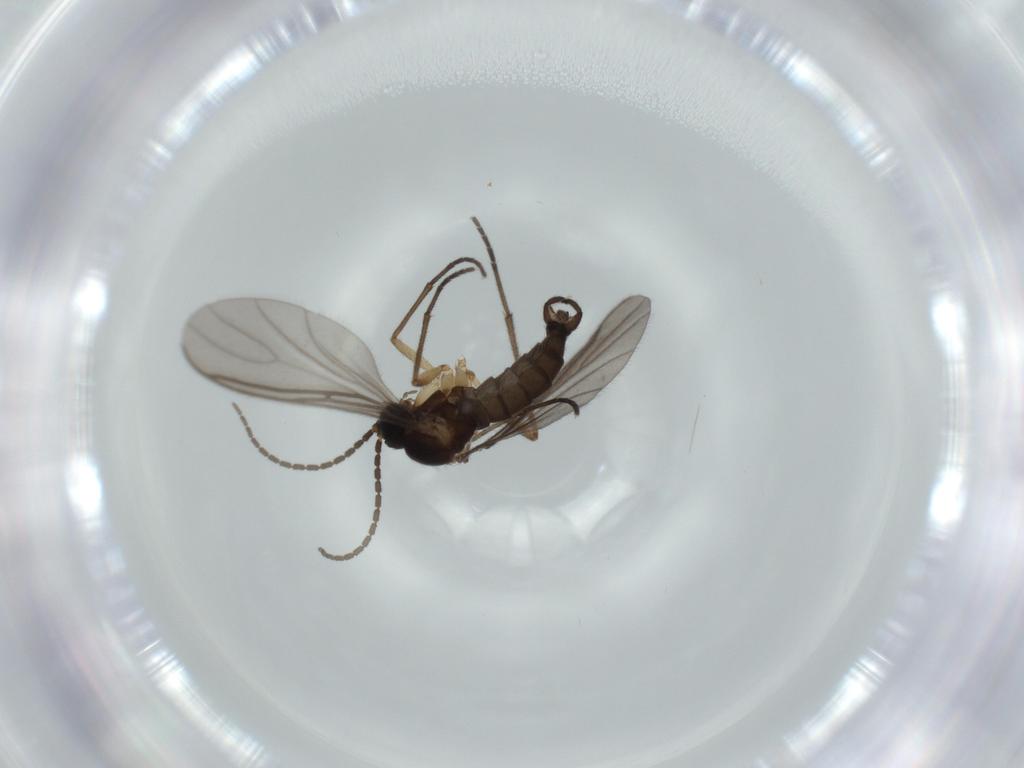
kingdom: Animalia
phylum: Arthropoda
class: Insecta
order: Diptera
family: Sciaridae
